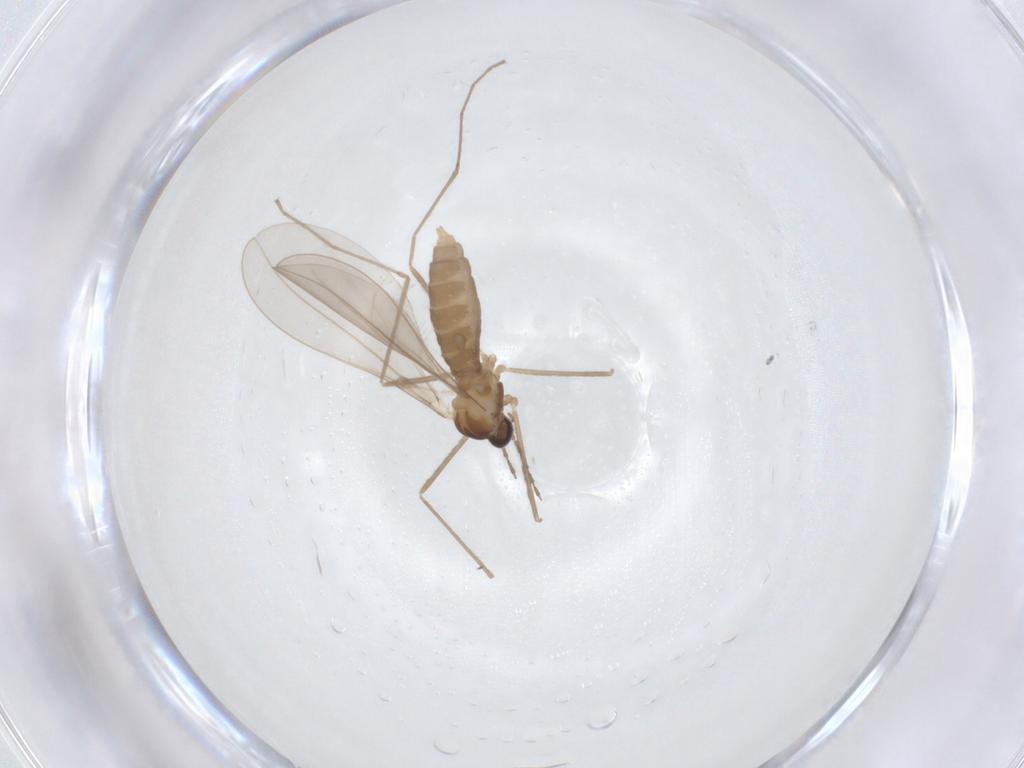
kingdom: Animalia
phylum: Arthropoda
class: Insecta
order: Diptera
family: Cecidomyiidae
